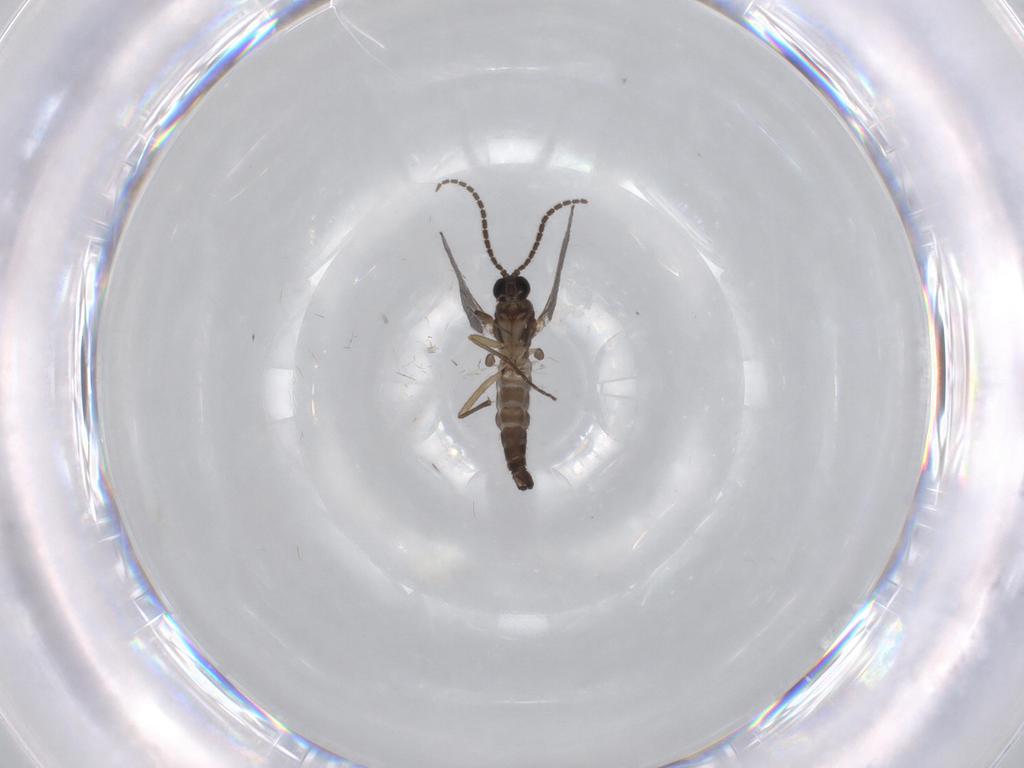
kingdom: Animalia
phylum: Arthropoda
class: Insecta
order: Diptera
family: Sciaridae
